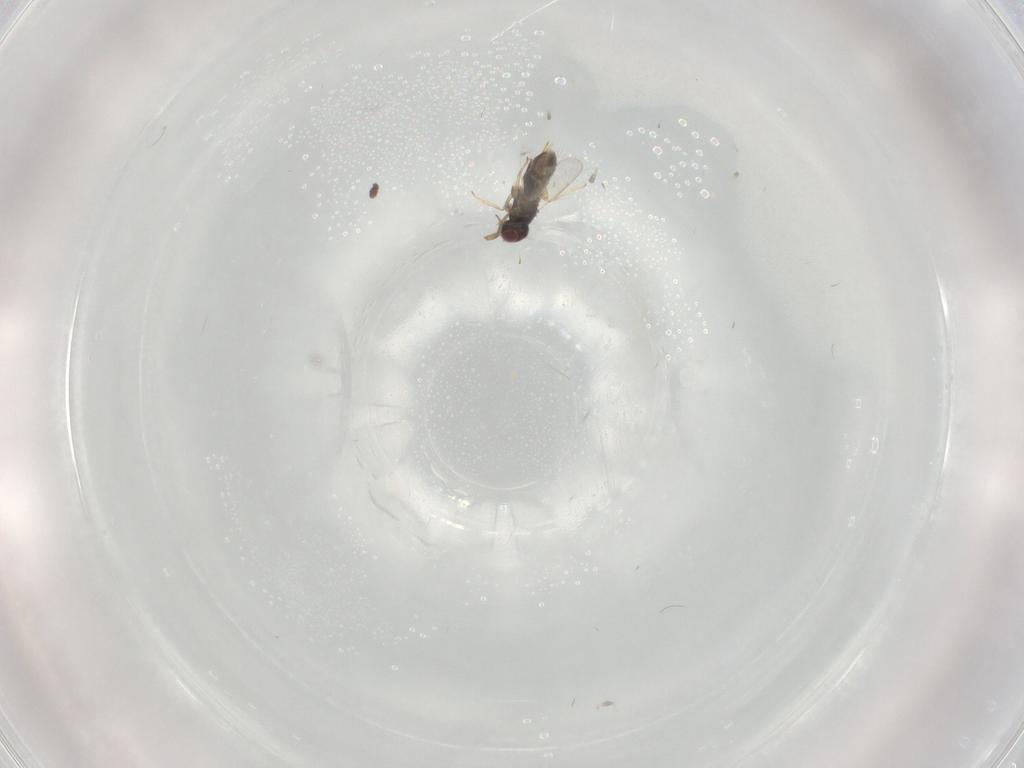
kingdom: Animalia
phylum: Arthropoda
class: Insecta
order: Hymenoptera
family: Aphelinidae
